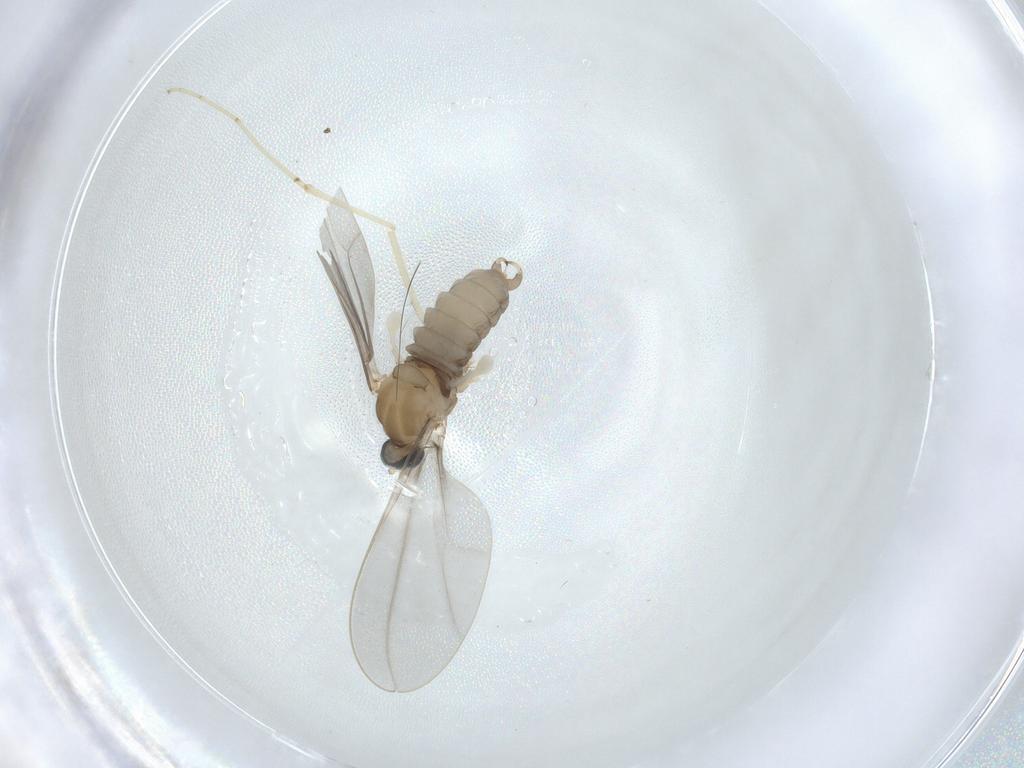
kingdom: Animalia
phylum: Arthropoda
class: Insecta
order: Diptera
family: Cecidomyiidae
